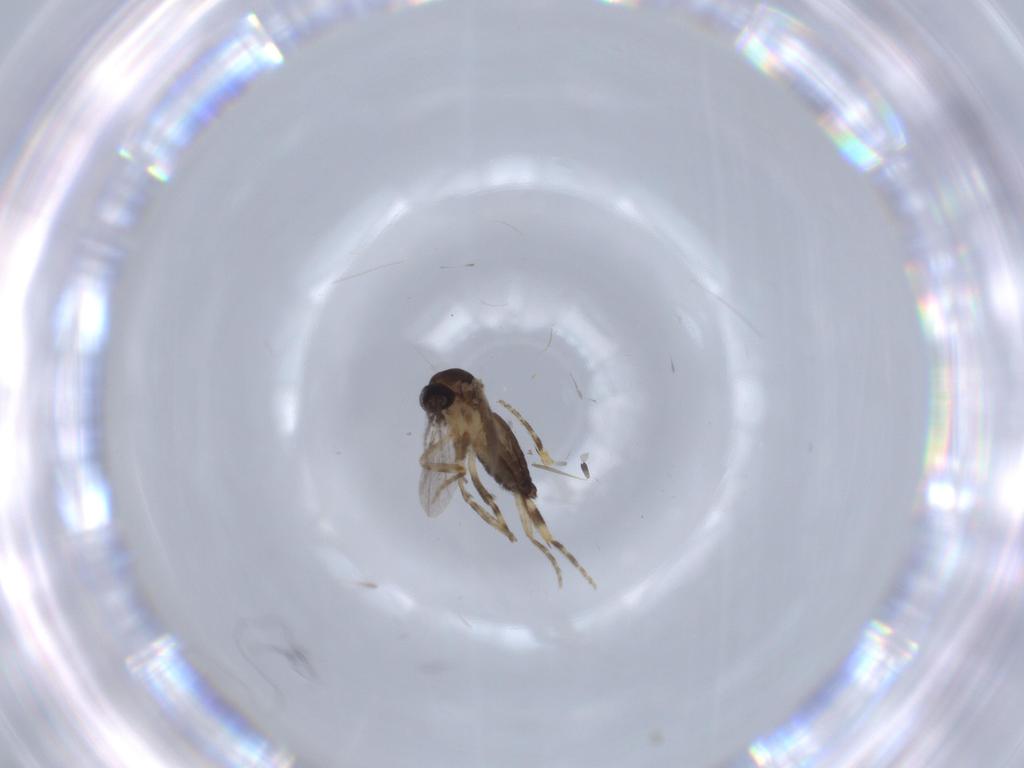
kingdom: Animalia
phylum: Arthropoda
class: Insecta
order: Diptera
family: Ceratopogonidae
